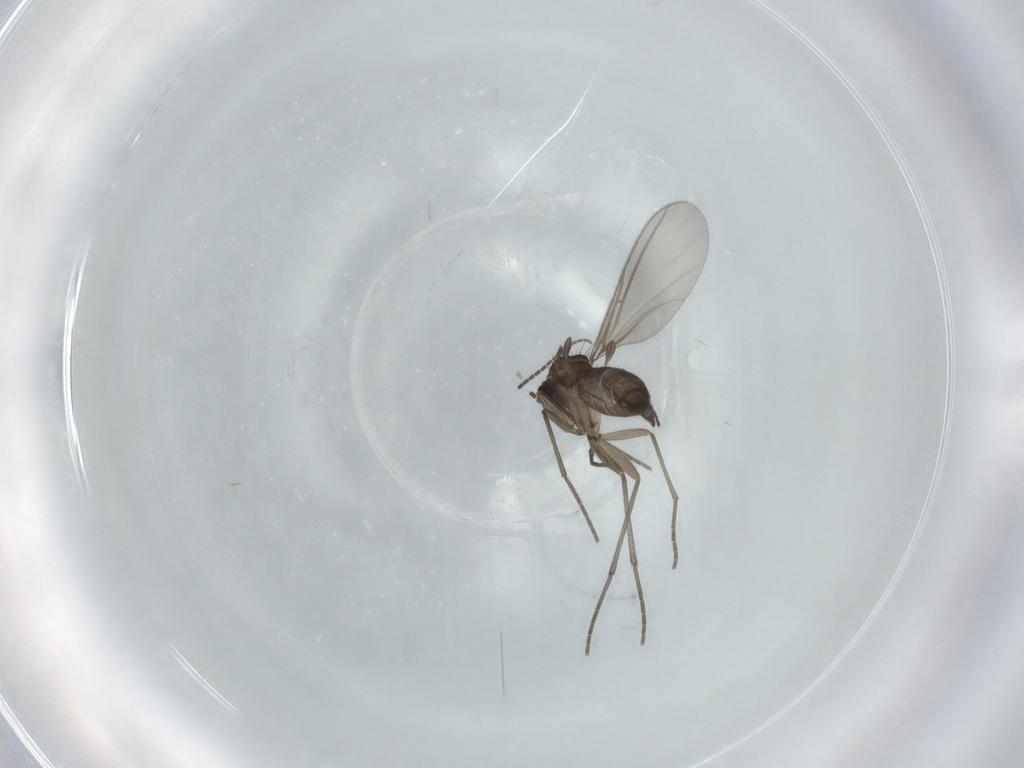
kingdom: Animalia
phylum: Arthropoda
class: Insecta
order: Diptera
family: Sciaridae
